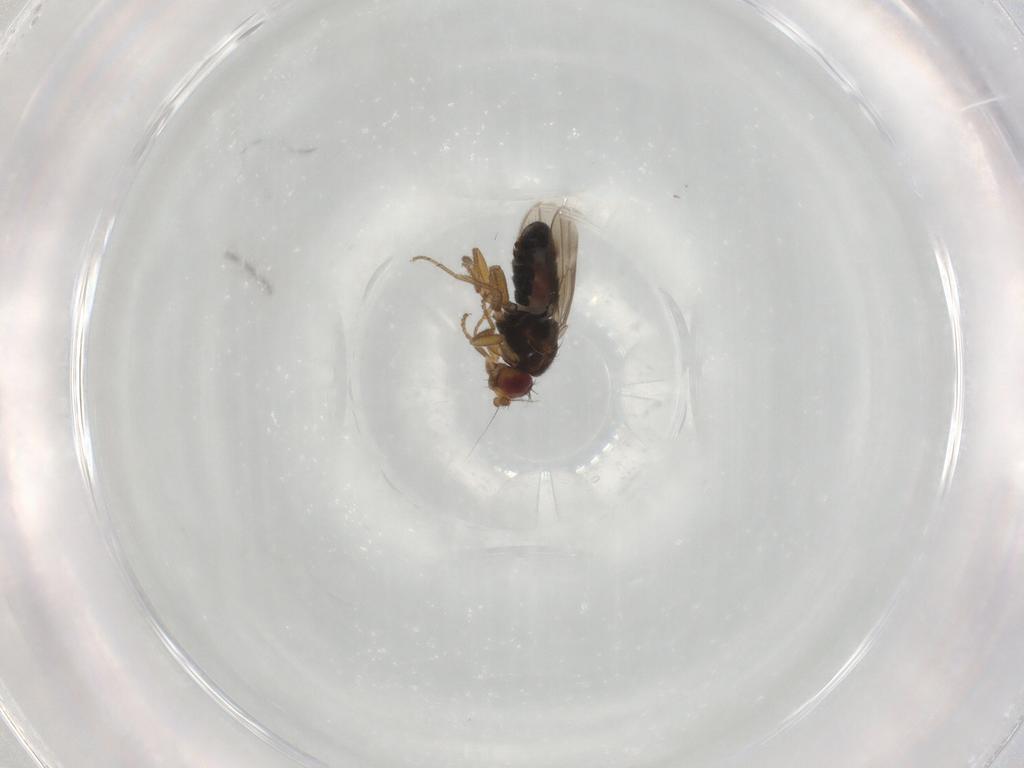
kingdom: Animalia
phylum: Arthropoda
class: Insecta
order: Diptera
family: Sphaeroceridae
